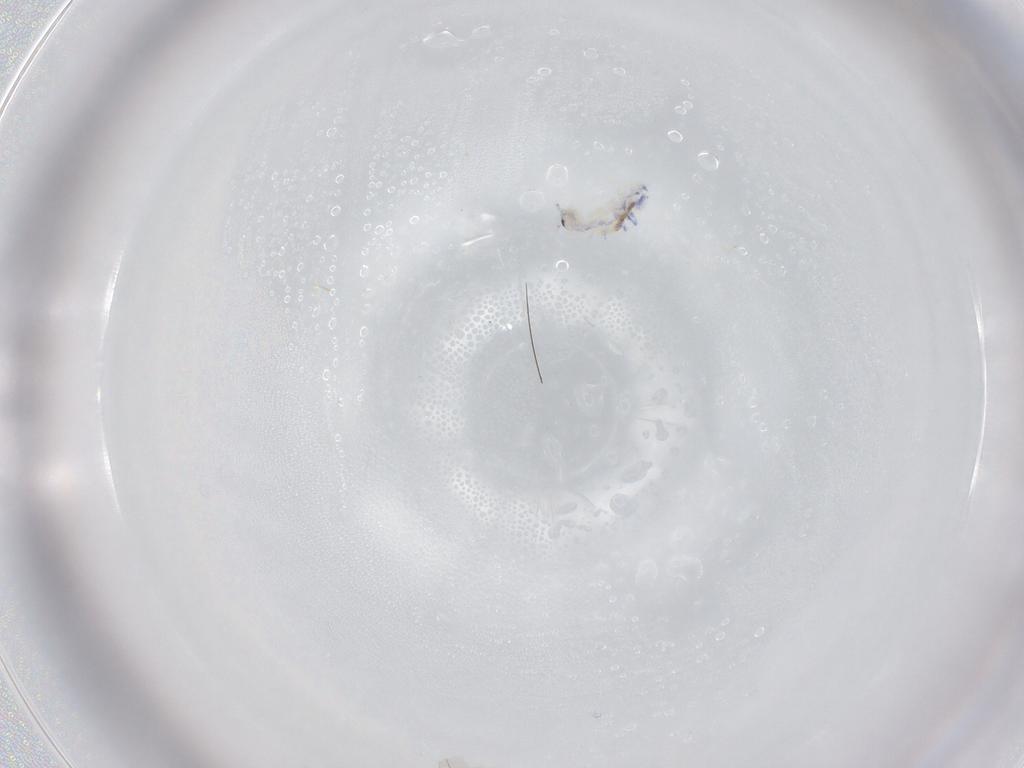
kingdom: Animalia
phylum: Arthropoda
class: Collembola
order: Entomobryomorpha
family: Entomobryidae
